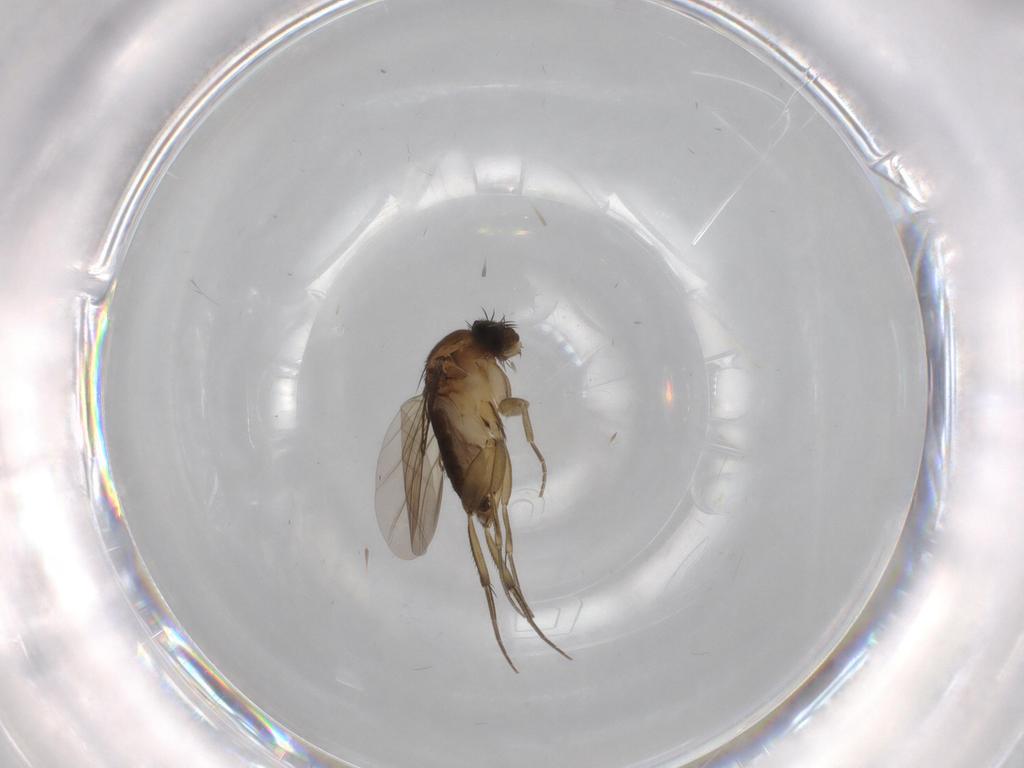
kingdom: Animalia
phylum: Arthropoda
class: Insecta
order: Diptera
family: Phoridae
